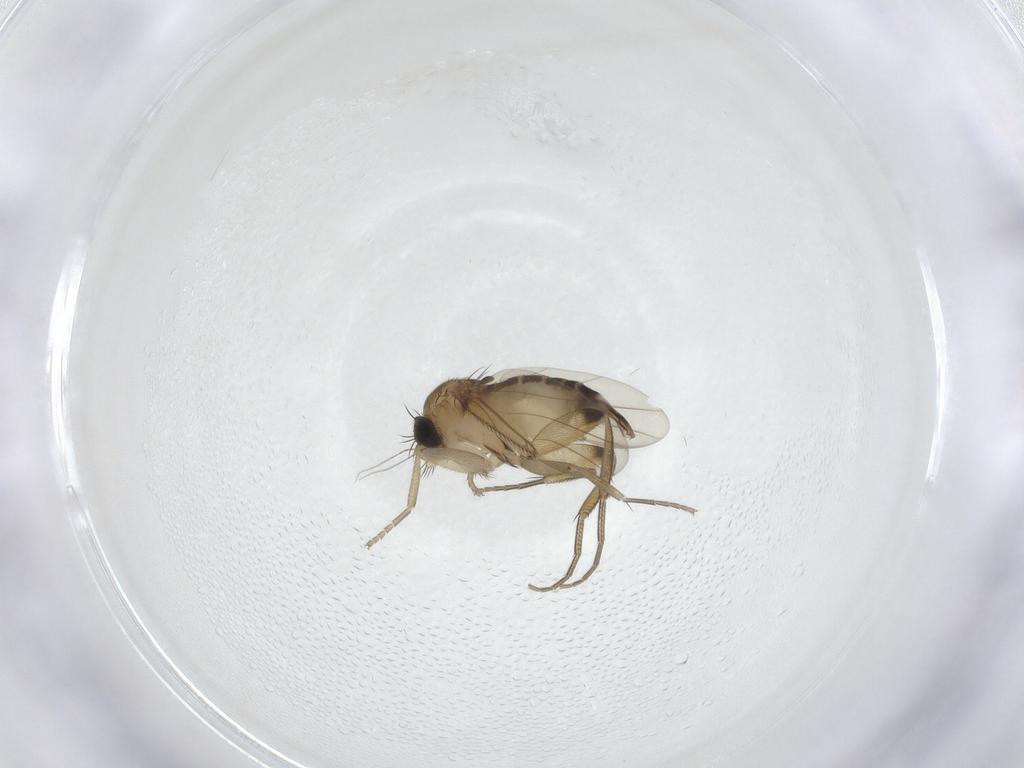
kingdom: Animalia
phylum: Arthropoda
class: Insecta
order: Diptera
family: Phoridae
